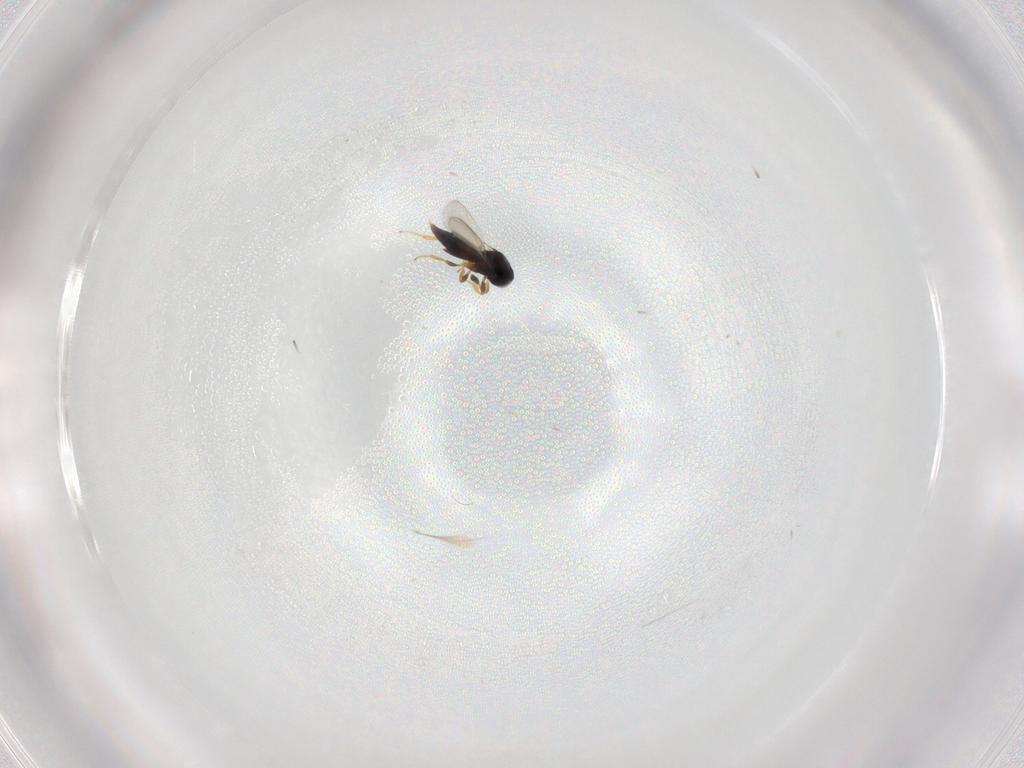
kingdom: Animalia
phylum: Arthropoda
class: Insecta
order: Hymenoptera
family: Platygastridae
